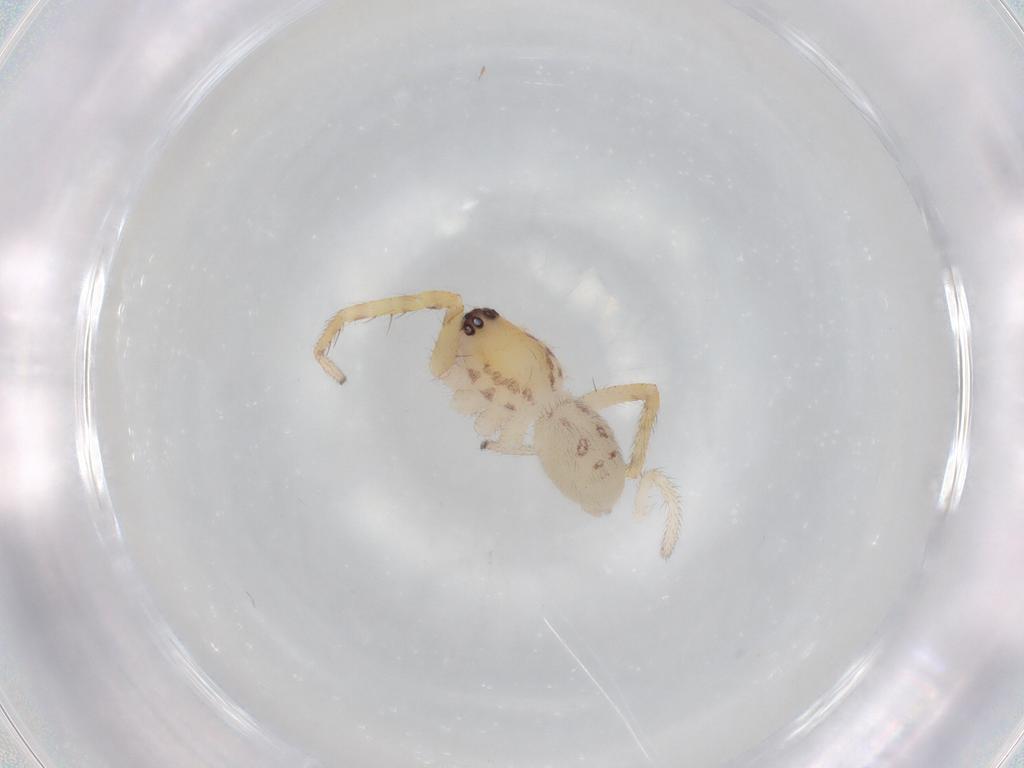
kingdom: Animalia
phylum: Arthropoda
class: Arachnida
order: Araneae
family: Corinnidae
